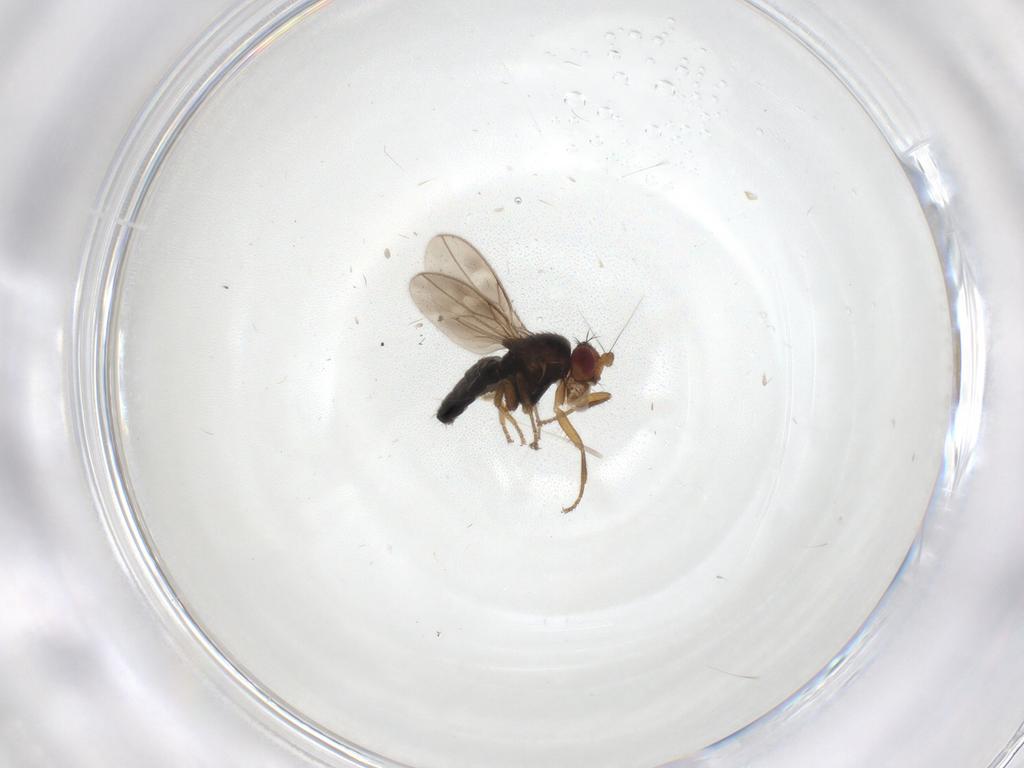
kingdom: Animalia
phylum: Arthropoda
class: Insecta
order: Diptera
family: Sphaeroceridae
